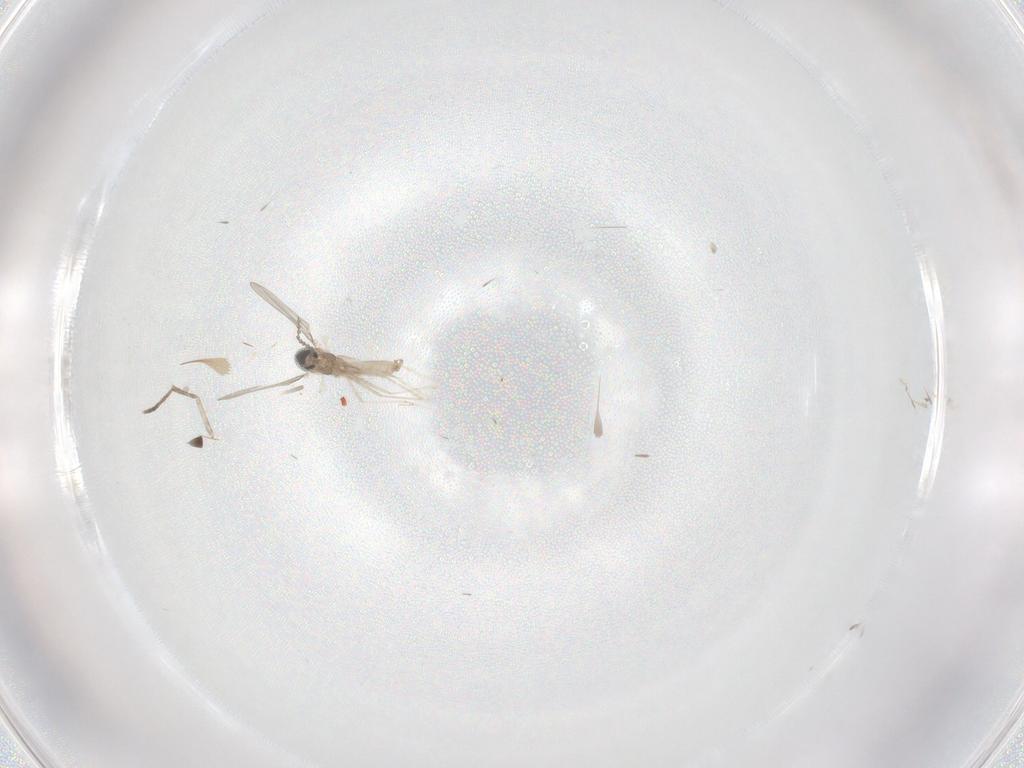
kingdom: Animalia
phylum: Arthropoda
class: Insecta
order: Diptera
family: Cecidomyiidae
